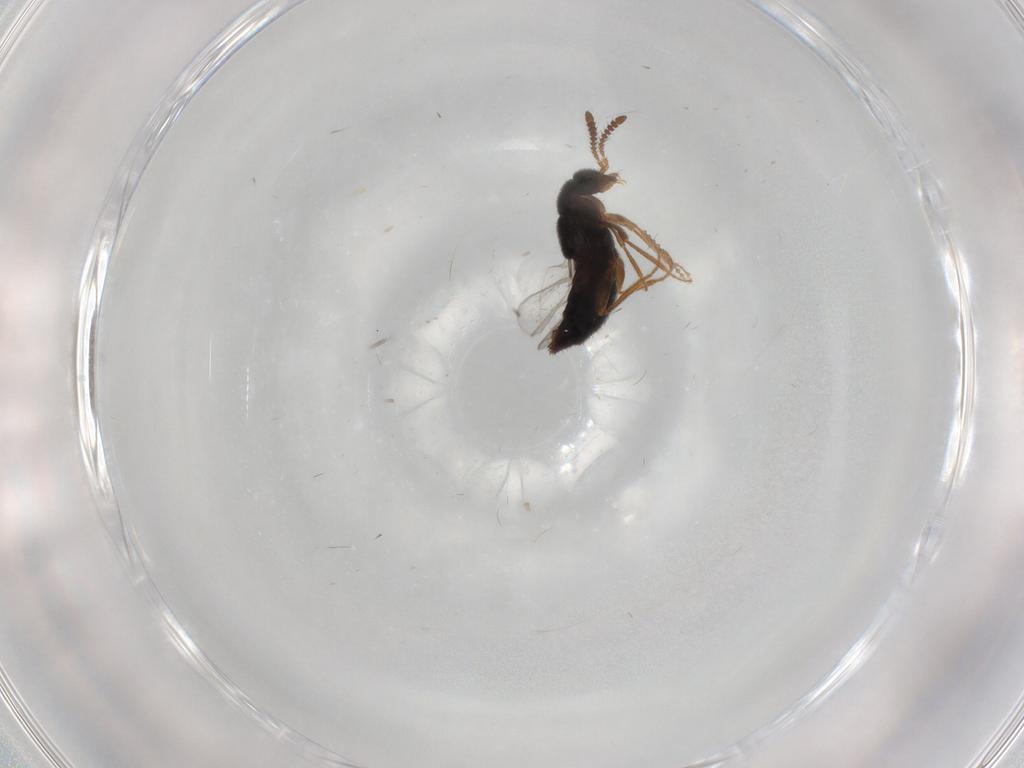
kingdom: Animalia
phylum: Arthropoda
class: Insecta
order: Coleoptera
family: Staphylinidae
